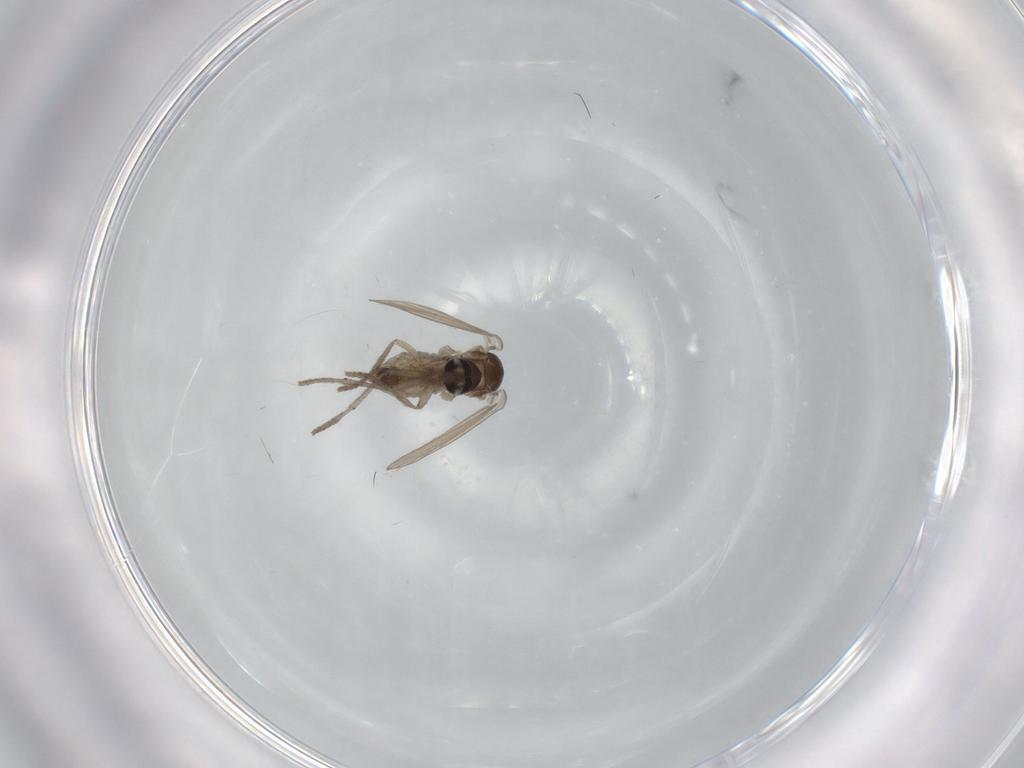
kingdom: Animalia
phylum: Arthropoda
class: Insecta
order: Diptera
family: Psychodidae
